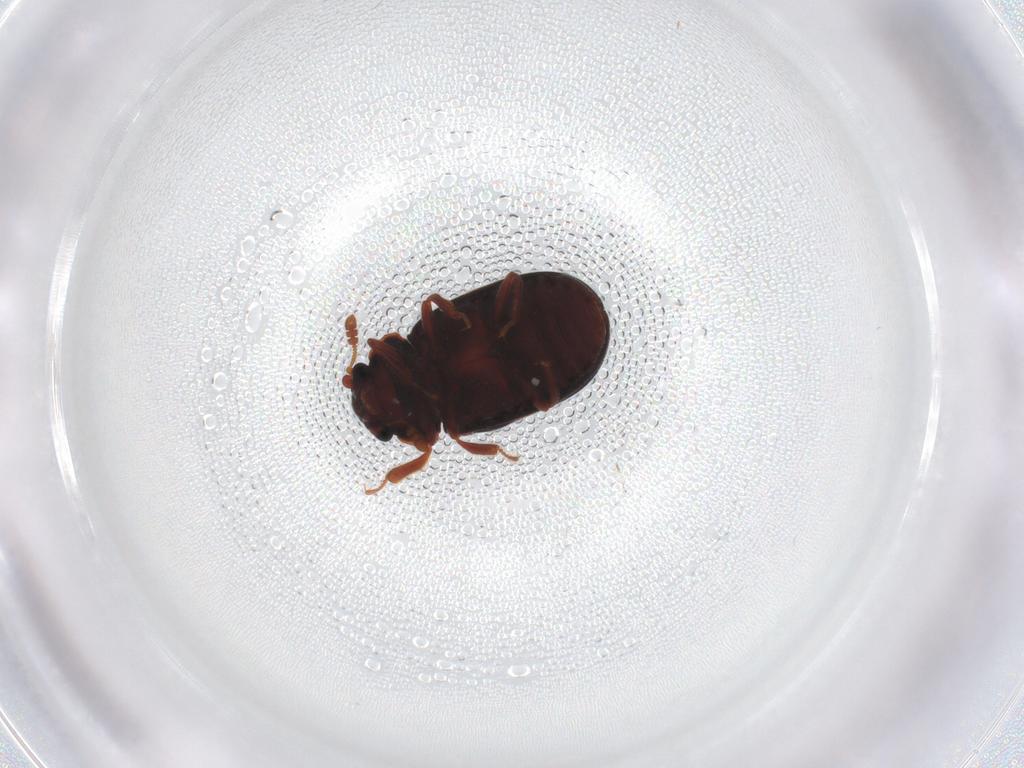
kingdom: Animalia
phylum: Arthropoda
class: Insecta
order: Coleoptera
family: Sphindidae
